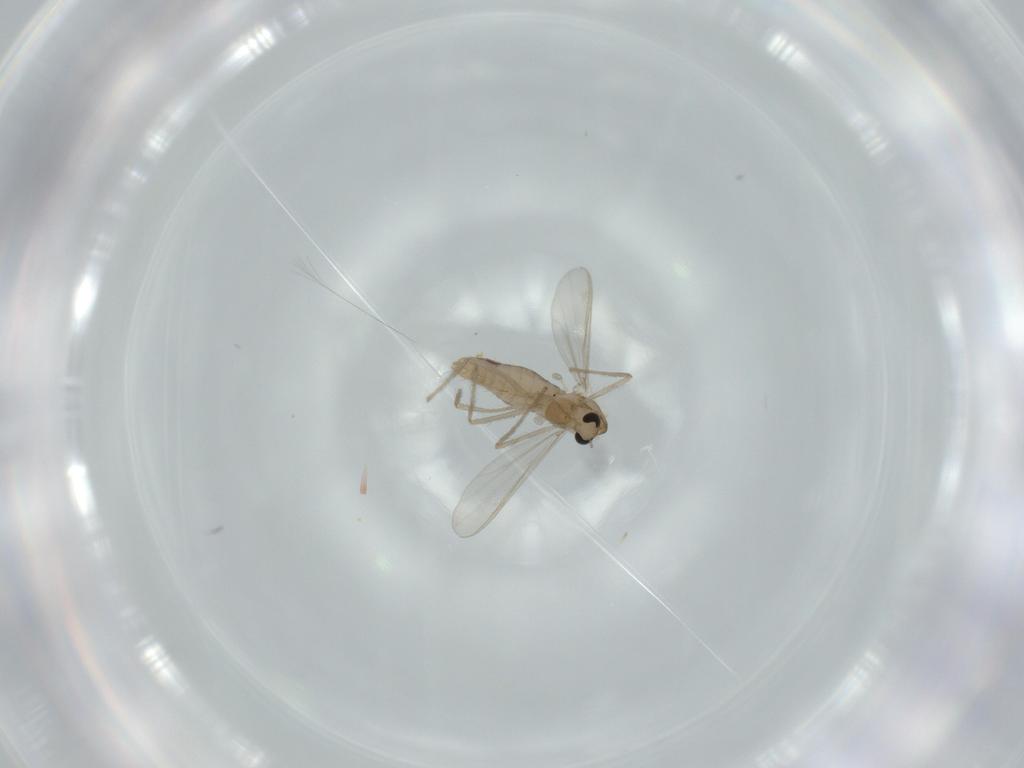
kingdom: Animalia
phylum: Arthropoda
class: Insecta
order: Diptera
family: Chironomidae
